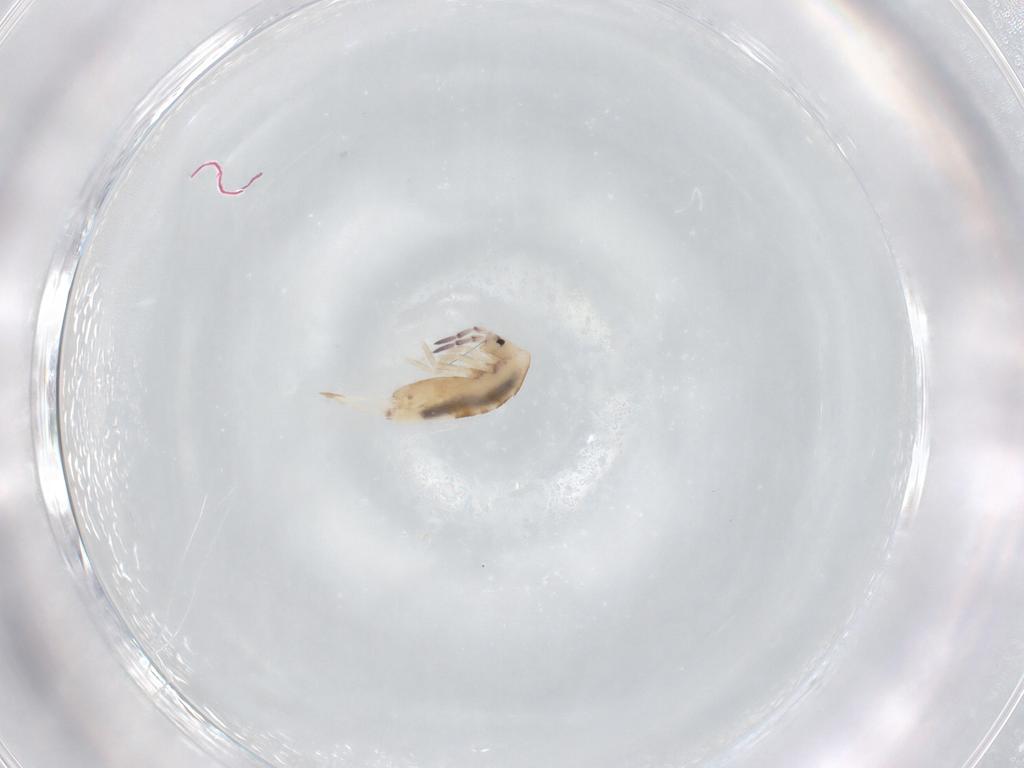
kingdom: Animalia
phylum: Arthropoda
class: Collembola
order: Entomobryomorpha
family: Entomobryidae
